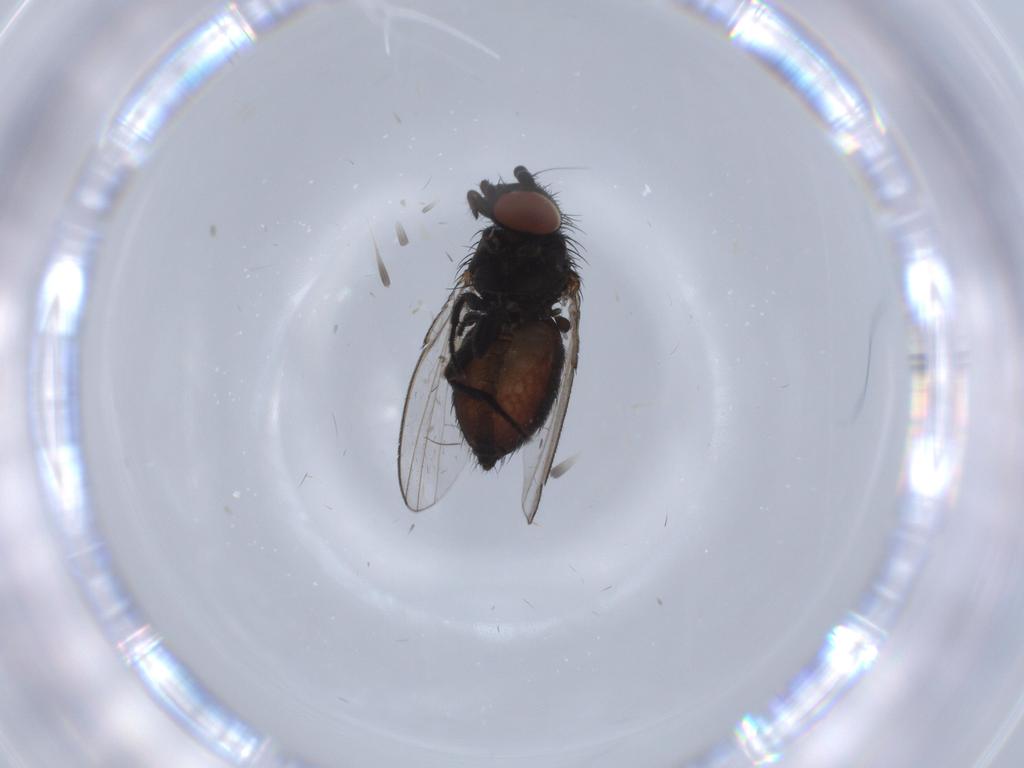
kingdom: Animalia
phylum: Arthropoda
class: Insecta
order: Diptera
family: Milichiidae
